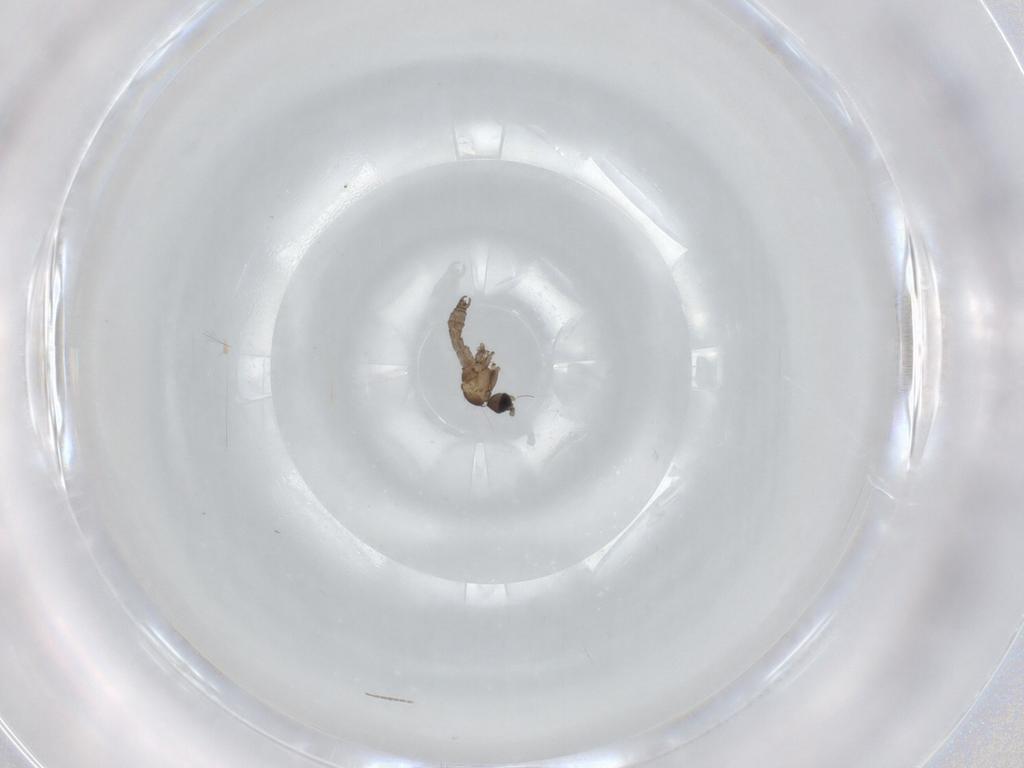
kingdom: Animalia
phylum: Arthropoda
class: Insecta
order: Diptera
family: Sciaridae
